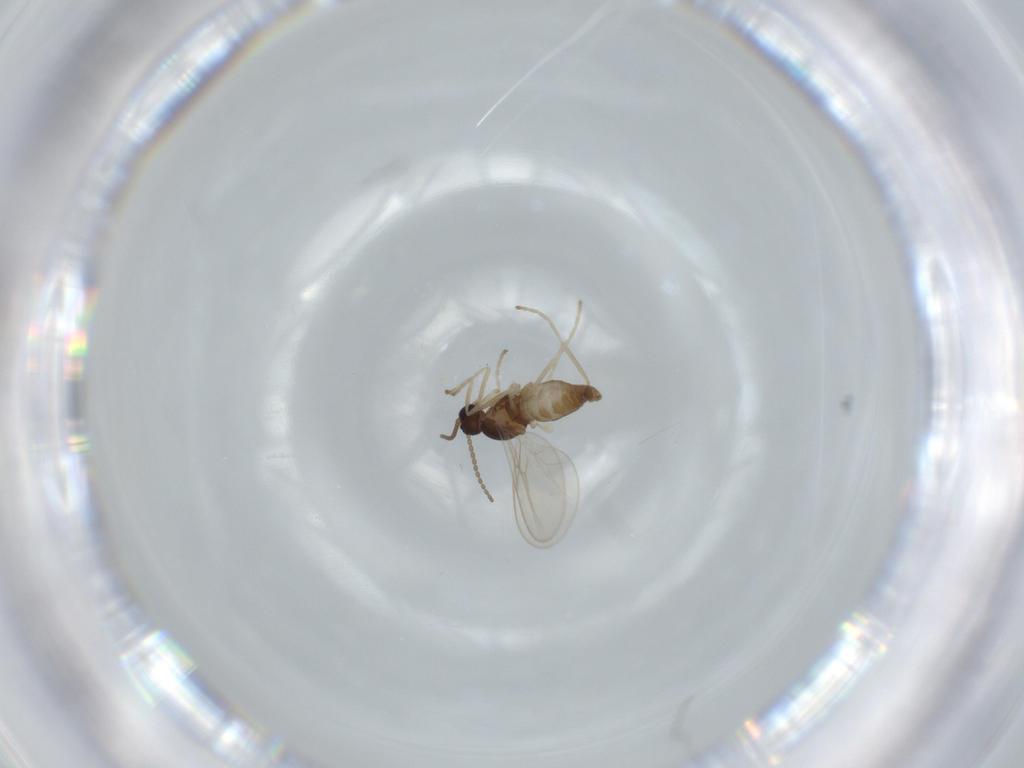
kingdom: Animalia
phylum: Arthropoda
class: Insecta
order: Diptera
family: Cecidomyiidae
